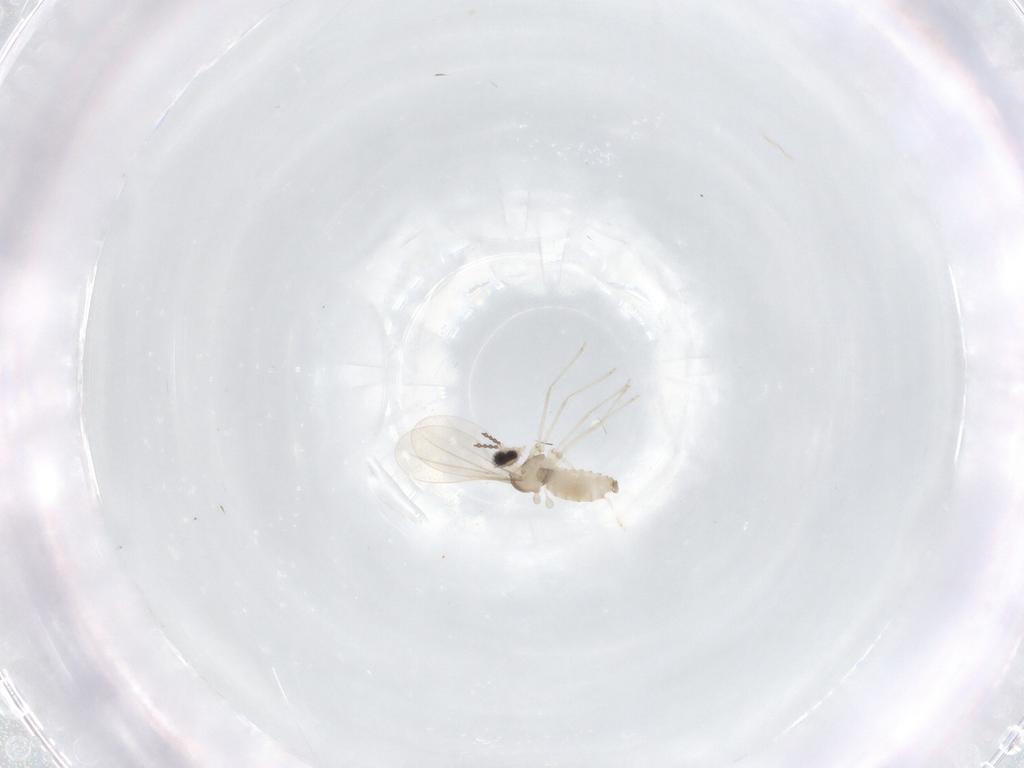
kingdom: Animalia
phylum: Arthropoda
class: Insecta
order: Diptera
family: Cecidomyiidae
